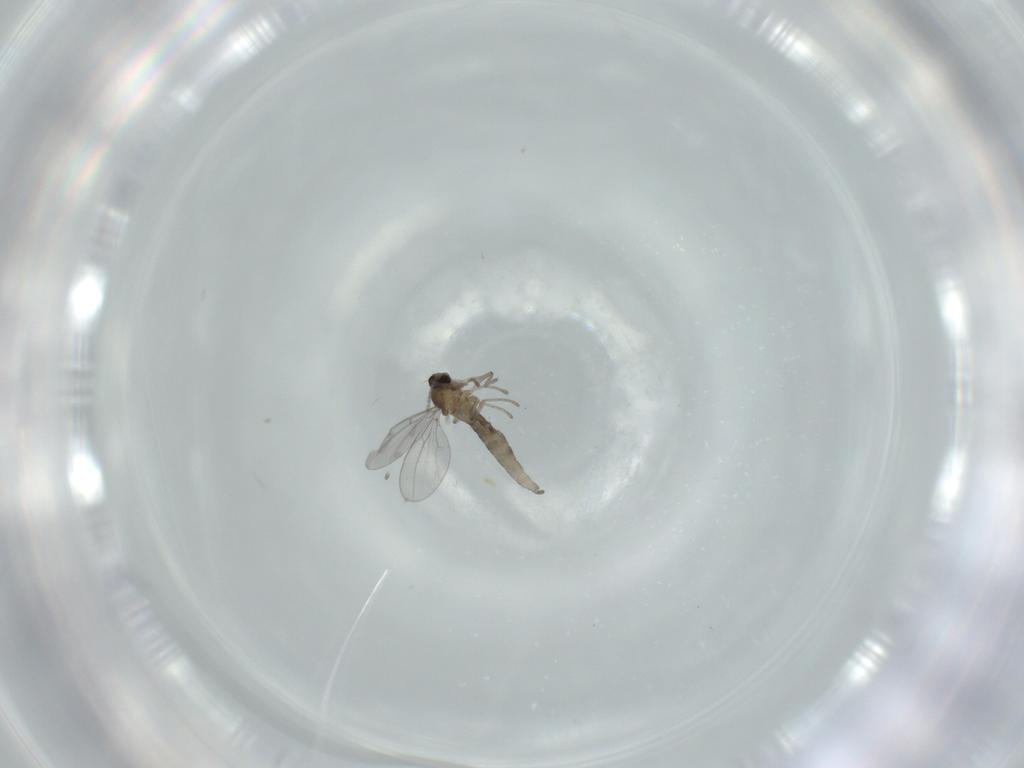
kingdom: Animalia
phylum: Arthropoda
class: Insecta
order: Diptera
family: Cecidomyiidae
